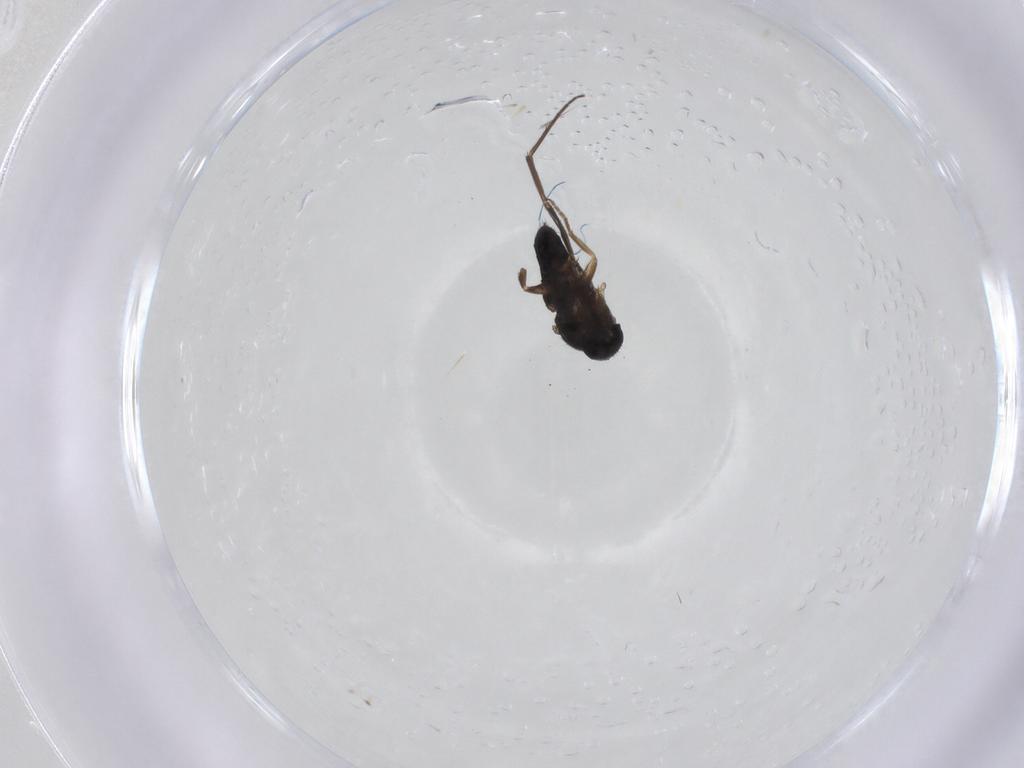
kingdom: Animalia
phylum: Arthropoda
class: Insecta
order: Diptera
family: Phoridae
